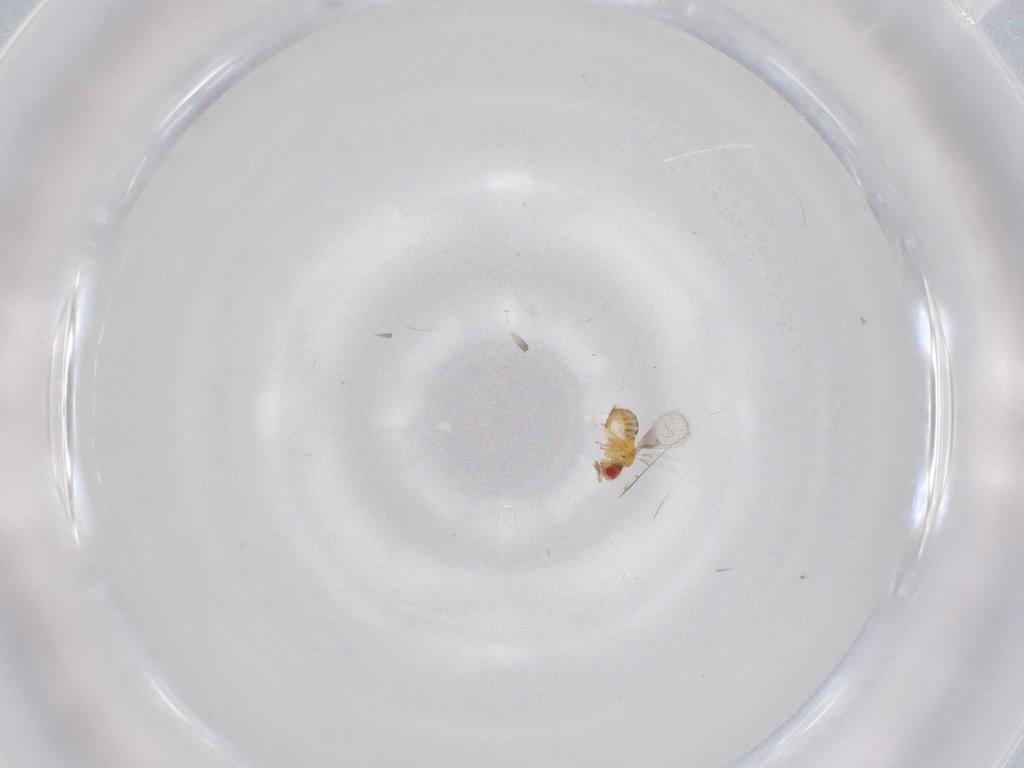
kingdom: Animalia
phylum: Arthropoda
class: Insecta
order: Hymenoptera
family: Trichogrammatidae
